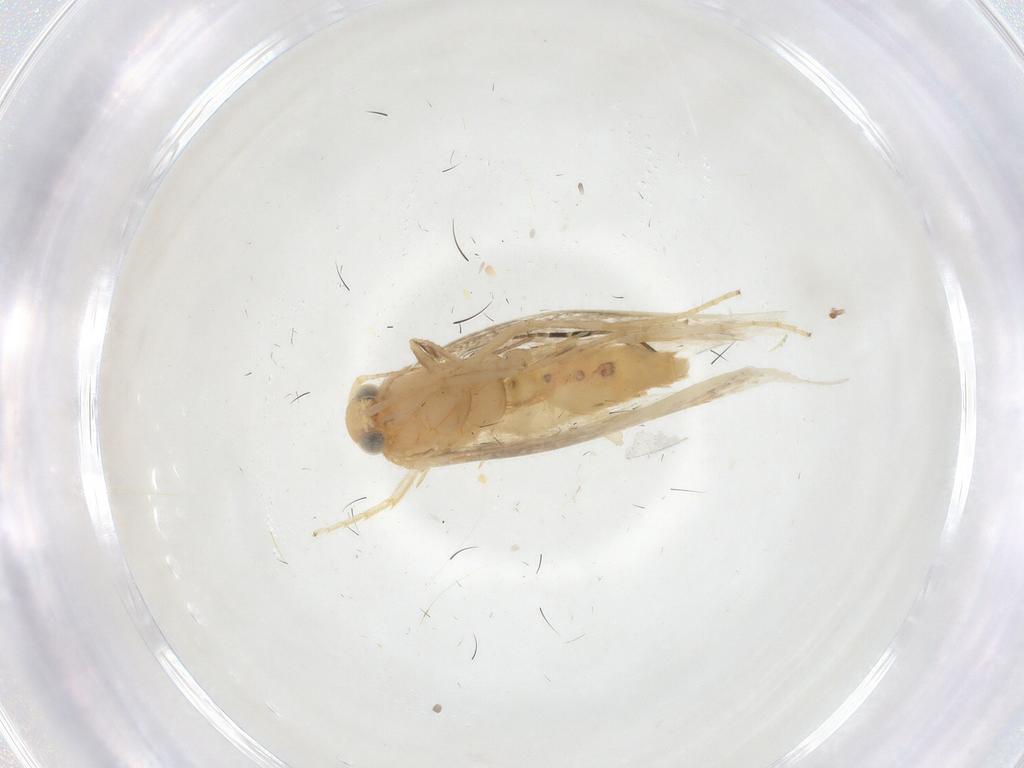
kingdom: Animalia
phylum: Arthropoda
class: Insecta
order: Lepidoptera
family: Argyresthiidae
